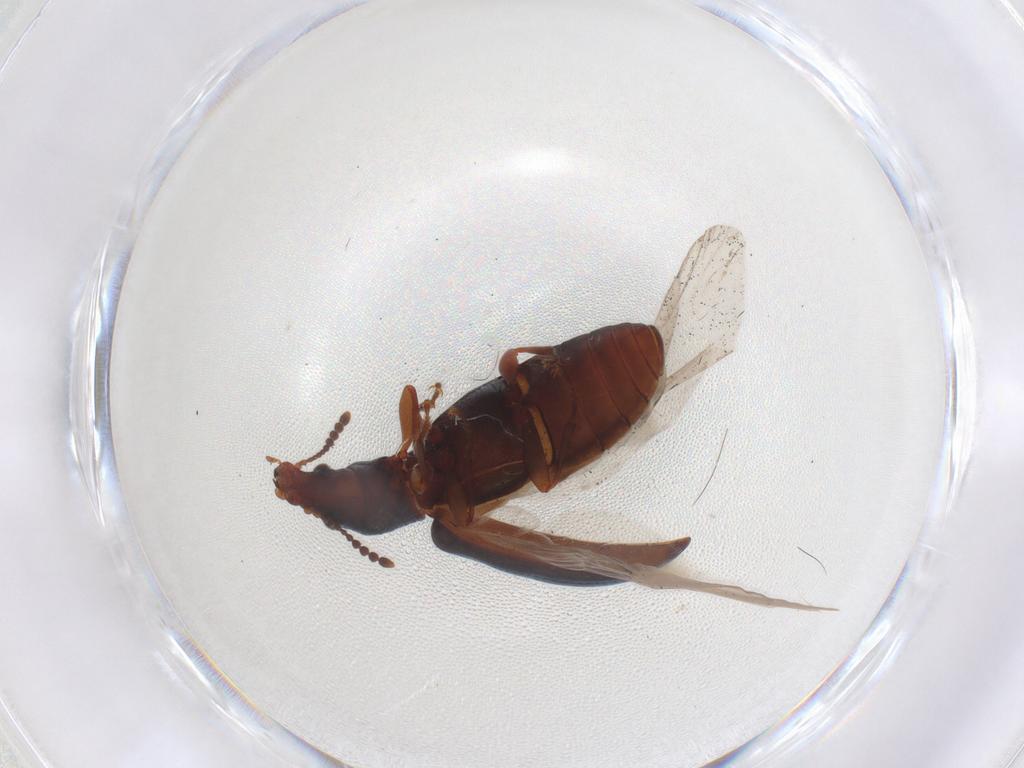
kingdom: Animalia
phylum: Arthropoda
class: Insecta
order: Coleoptera
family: Salpingidae
